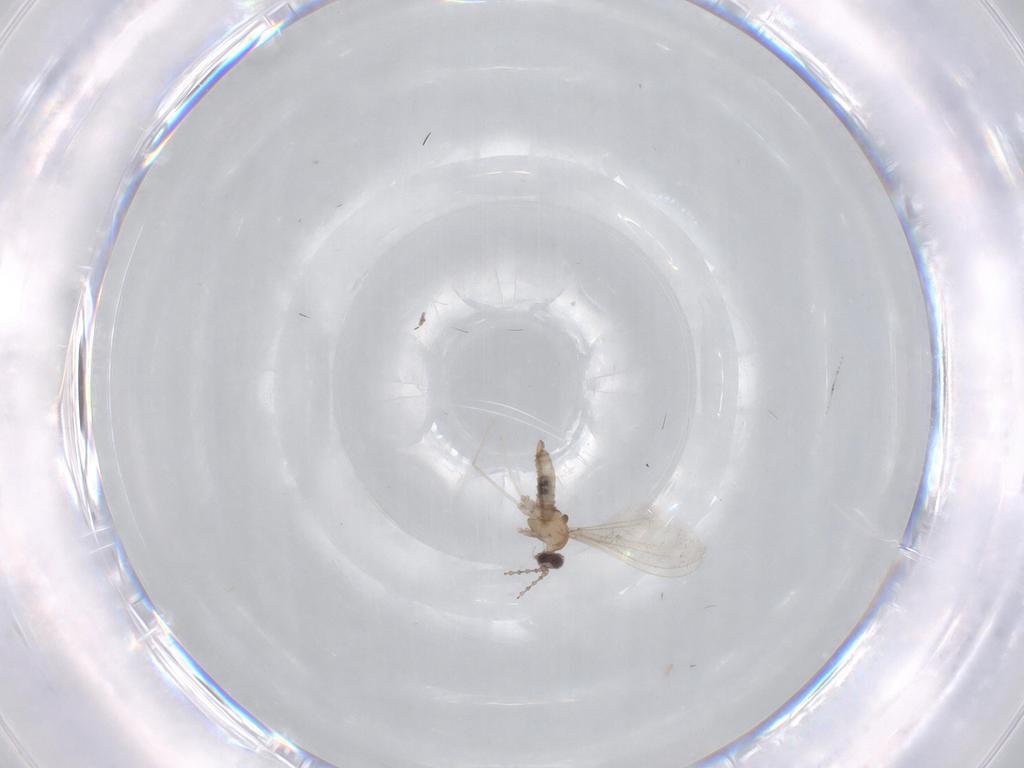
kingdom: Animalia
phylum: Arthropoda
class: Insecta
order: Diptera
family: Cecidomyiidae
